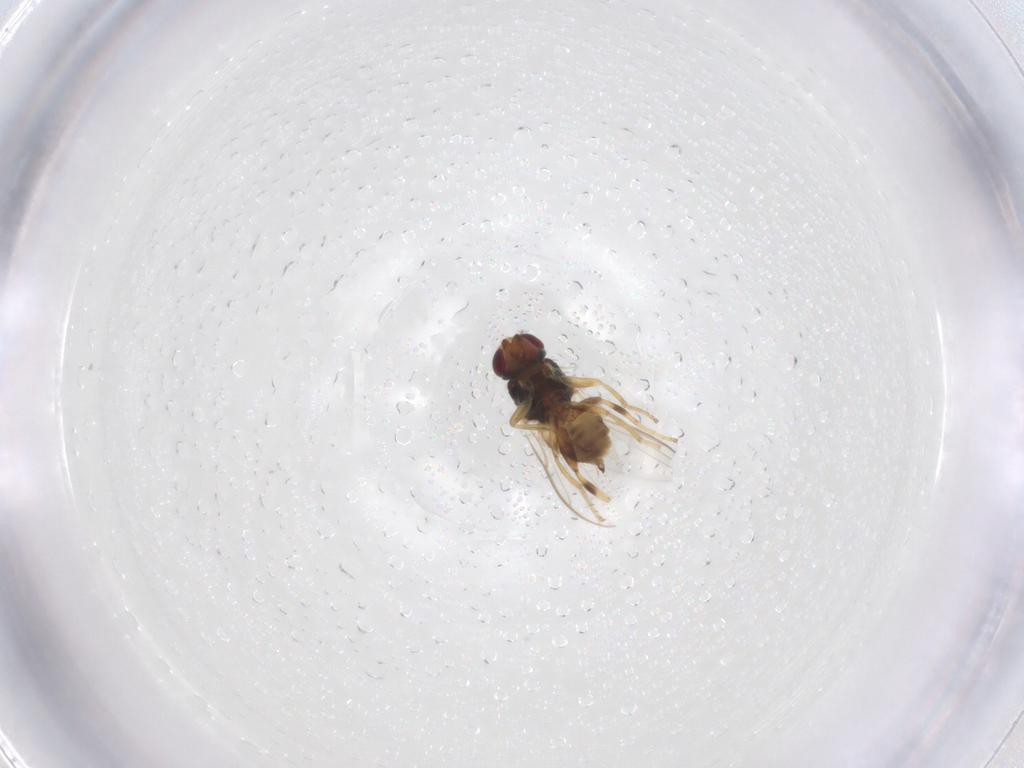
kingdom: Animalia
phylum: Arthropoda
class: Insecta
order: Diptera
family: Chloropidae
